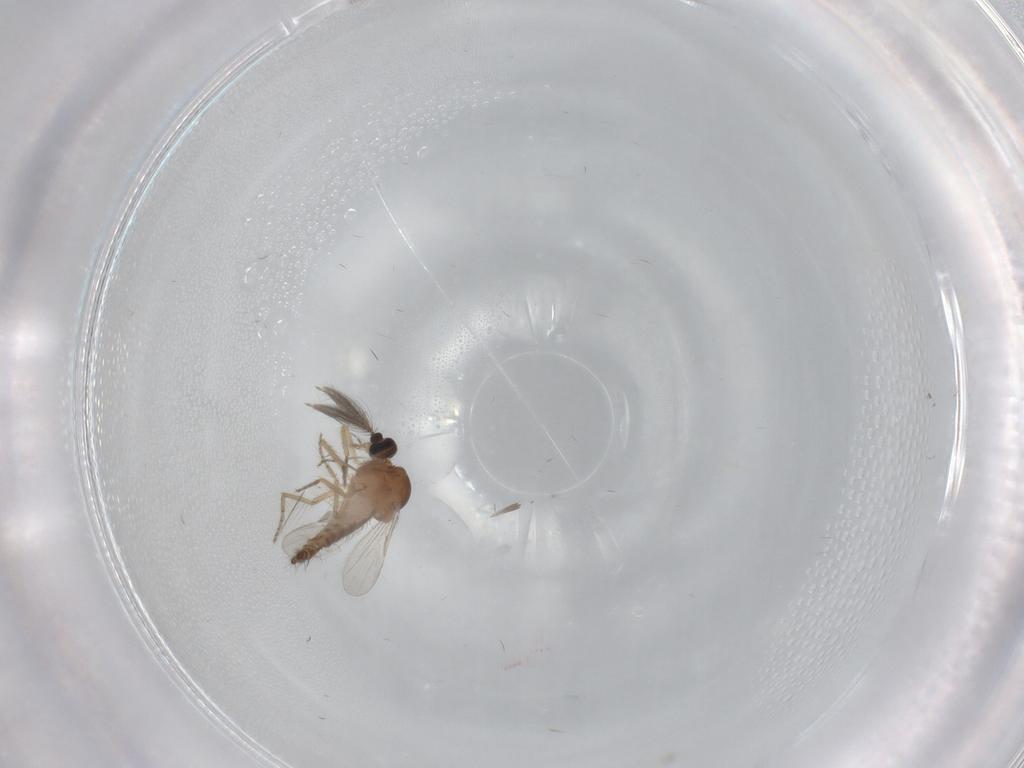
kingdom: Animalia
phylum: Arthropoda
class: Insecta
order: Diptera
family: Ceratopogonidae
